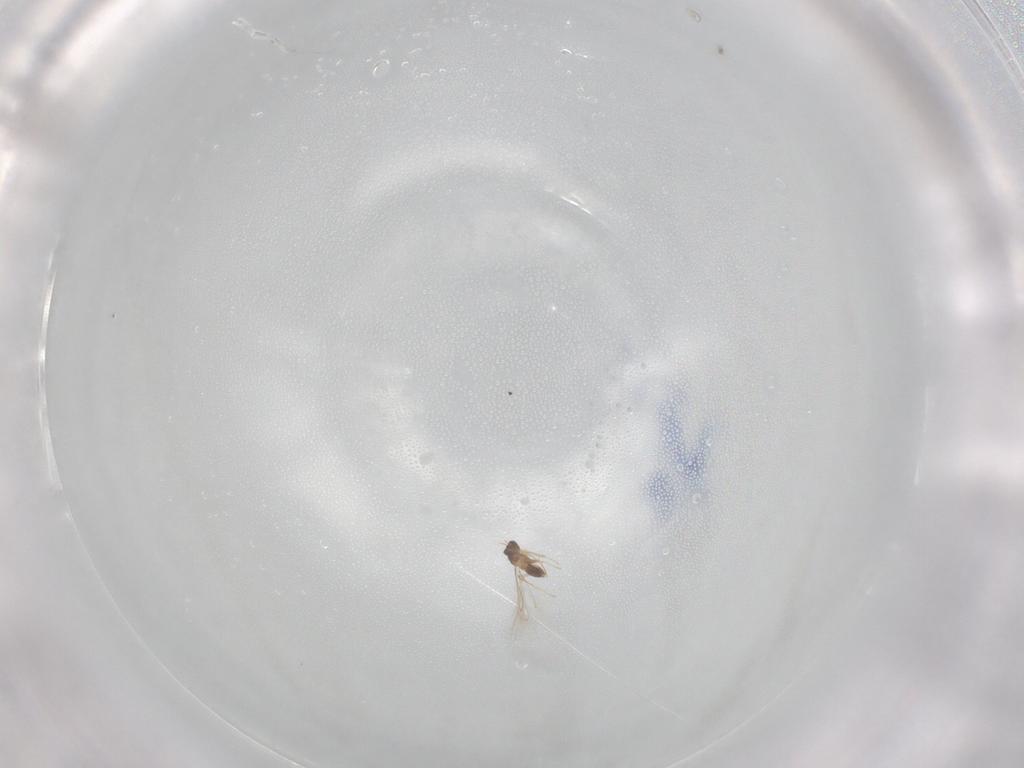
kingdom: Animalia
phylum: Arthropoda
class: Insecta
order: Hymenoptera
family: Mymaridae
